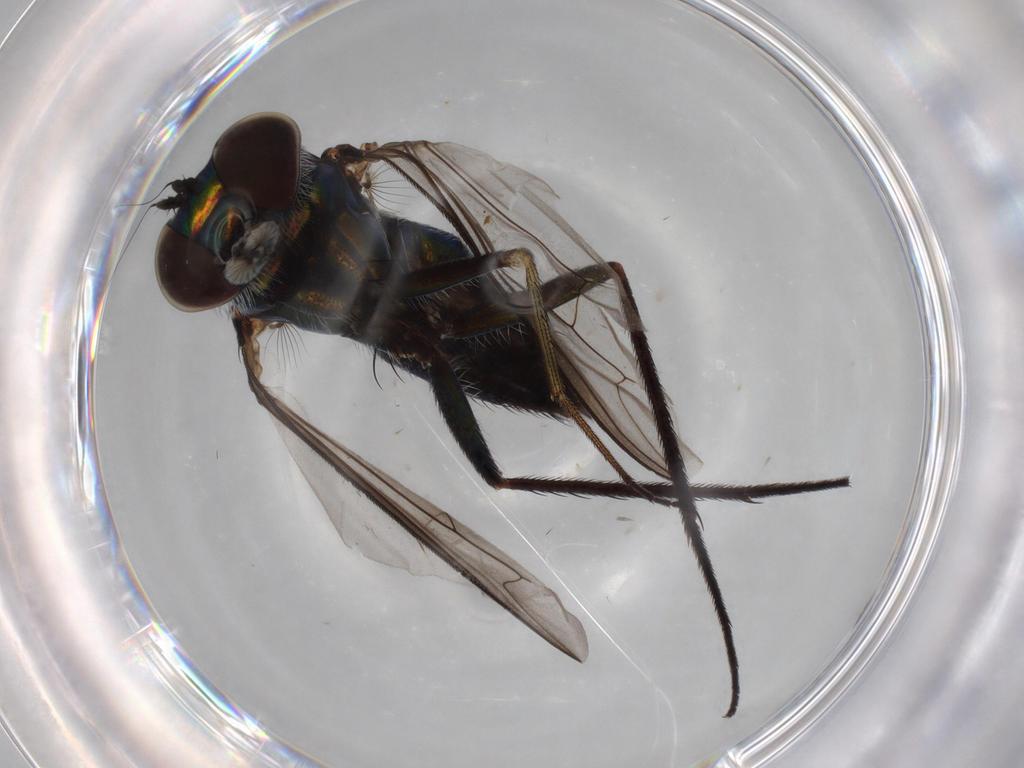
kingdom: Animalia
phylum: Arthropoda
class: Insecta
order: Diptera
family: Dolichopodidae
